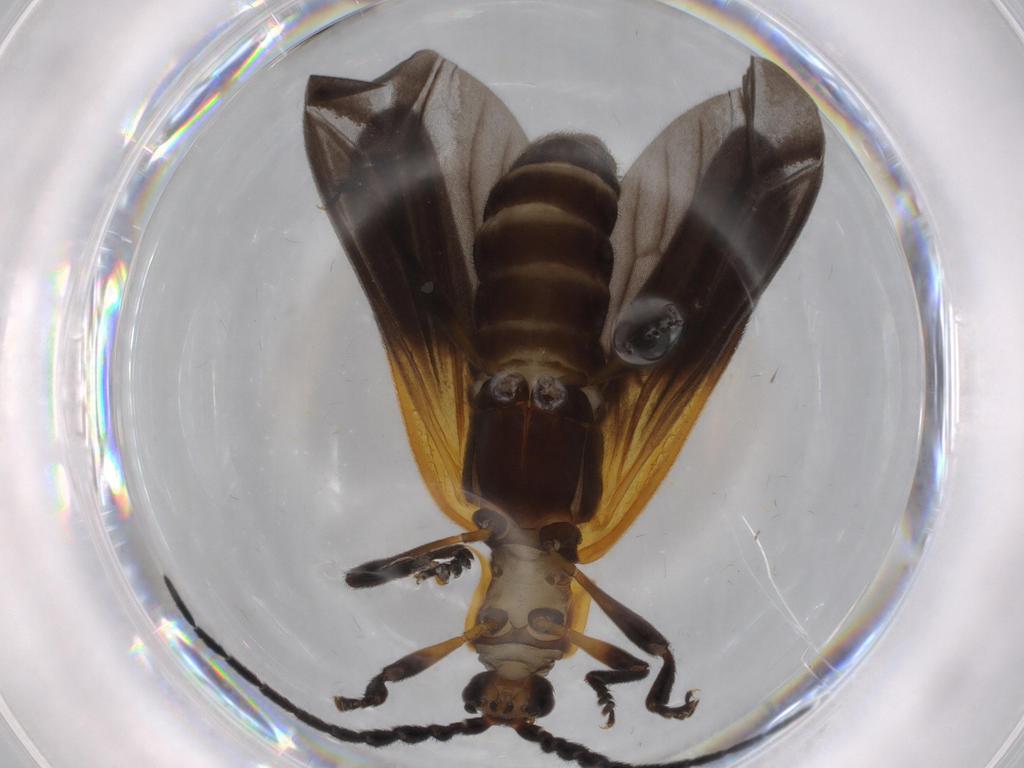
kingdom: Animalia
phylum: Arthropoda
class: Insecta
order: Coleoptera
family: Lycidae
